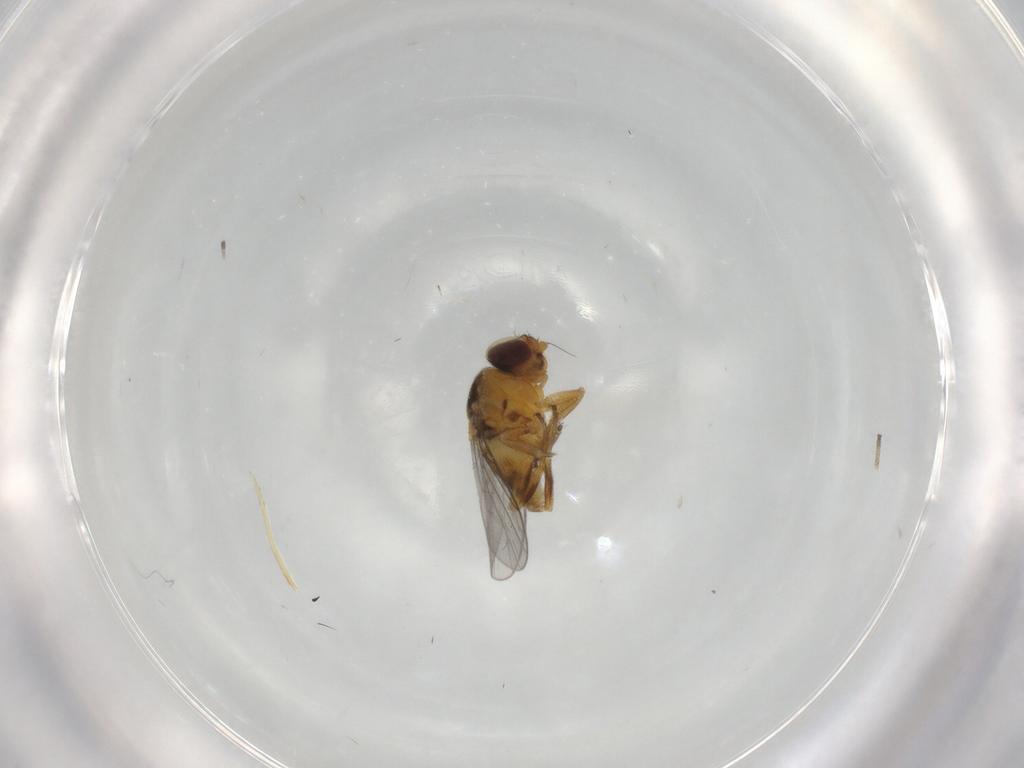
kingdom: Animalia
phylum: Arthropoda
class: Insecta
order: Diptera
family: Chloropidae
